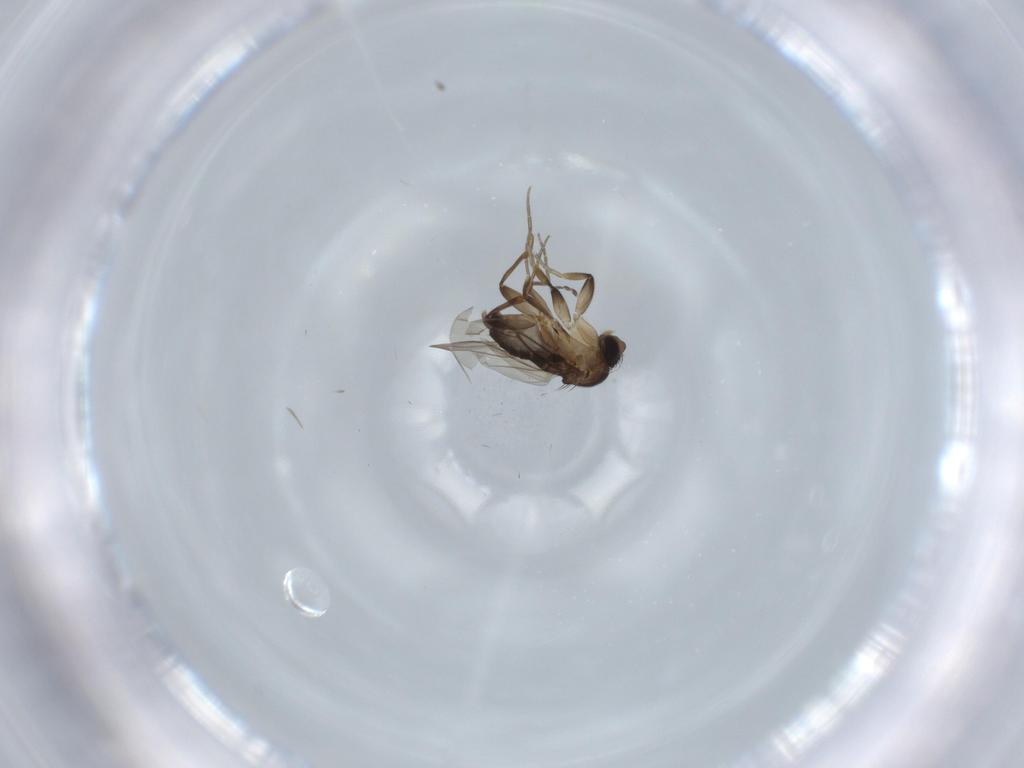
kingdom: Animalia
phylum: Arthropoda
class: Insecta
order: Diptera
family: Phoridae
